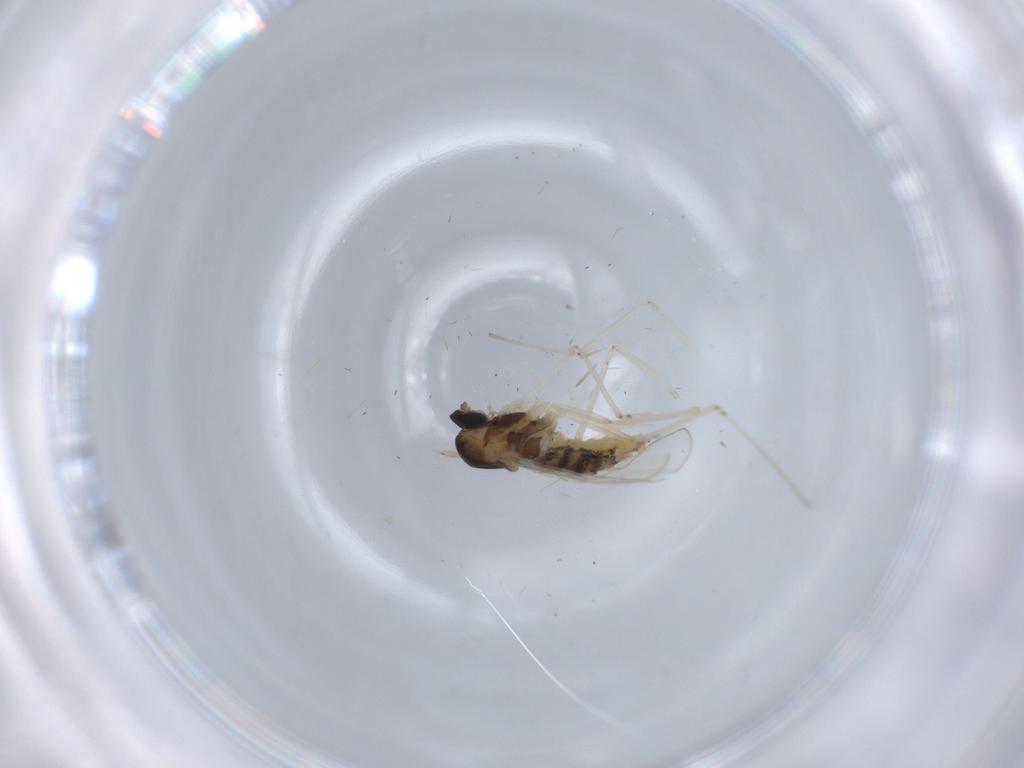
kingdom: Animalia
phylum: Arthropoda
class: Insecta
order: Diptera
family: Cecidomyiidae
